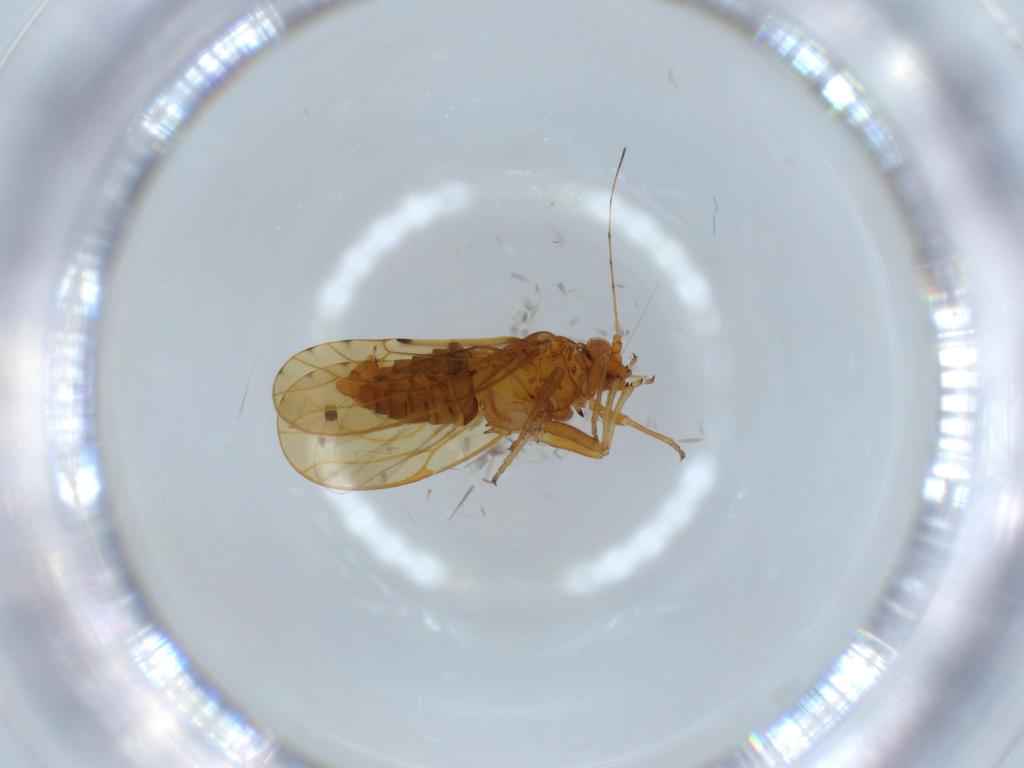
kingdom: Animalia
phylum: Arthropoda
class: Insecta
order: Hemiptera
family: Psylloidea_incertae_sedis
